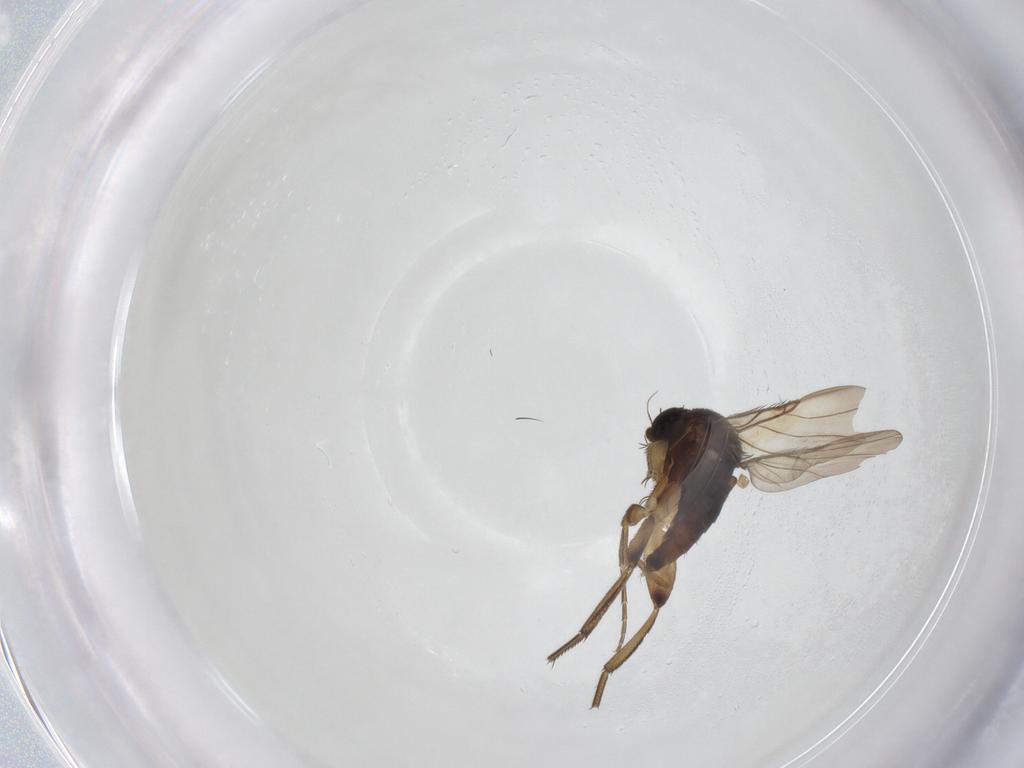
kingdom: Animalia
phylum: Arthropoda
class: Insecta
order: Diptera
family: Phoridae
